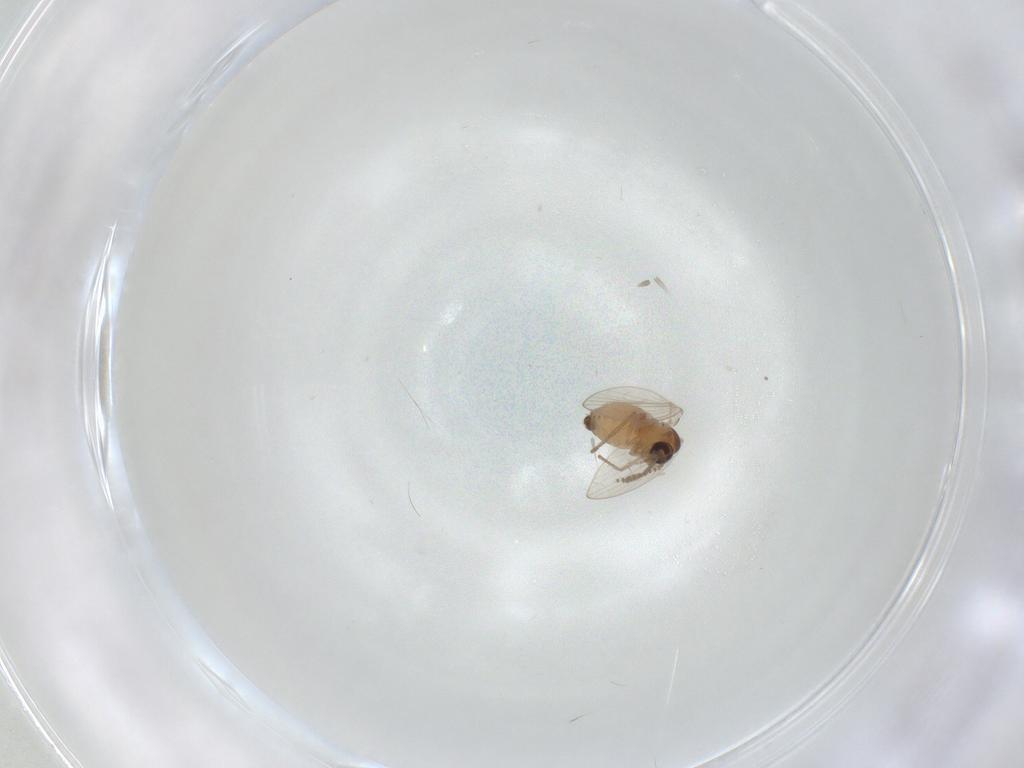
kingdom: Animalia
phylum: Arthropoda
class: Insecta
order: Diptera
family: Psychodidae
